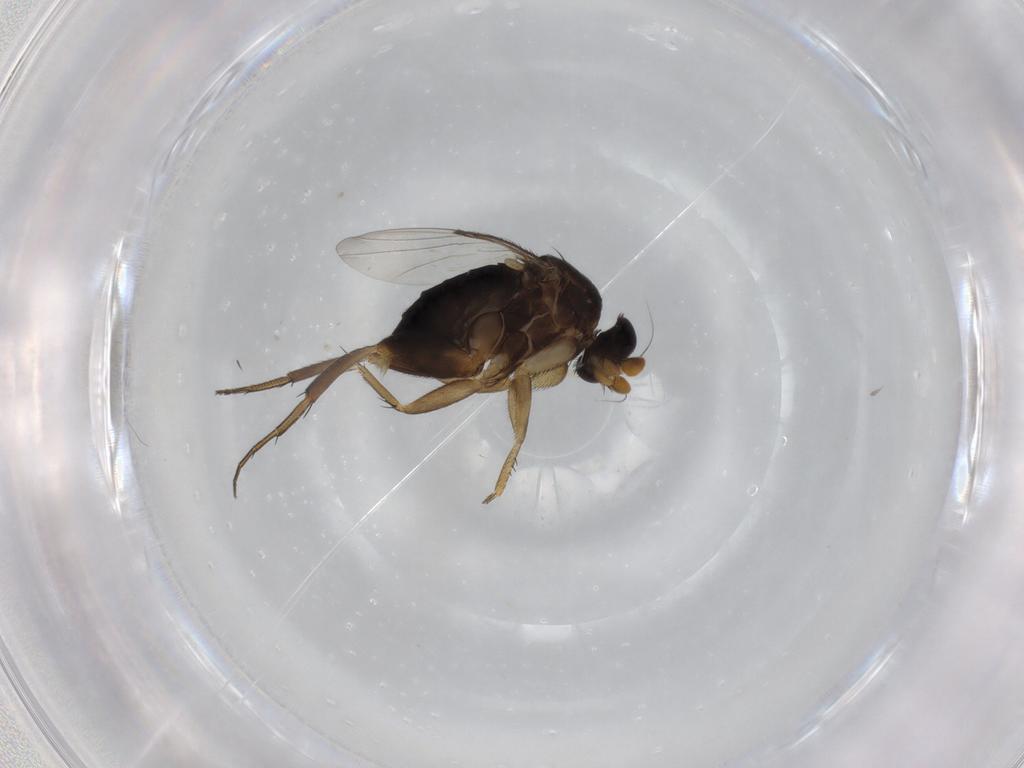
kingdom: Animalia
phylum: Arthropoda
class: Insecta
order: Diptera
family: Phoridae
